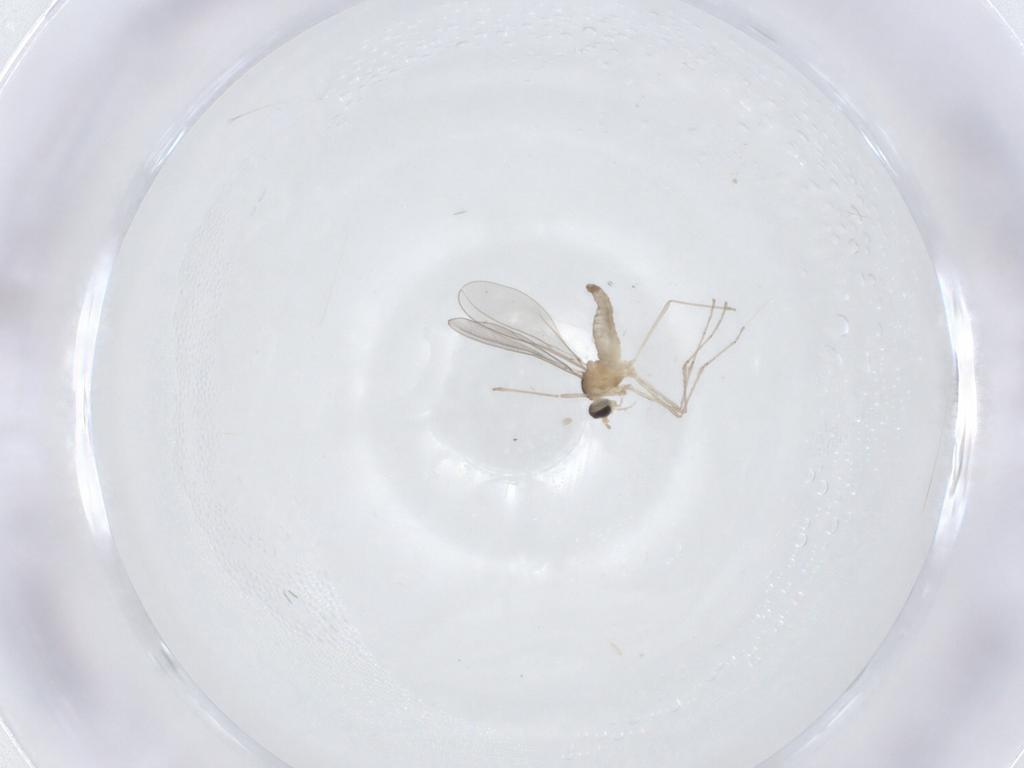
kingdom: Animalia
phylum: Arthropoda
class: Insecta
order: Diptera
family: Cecidomyiidae
